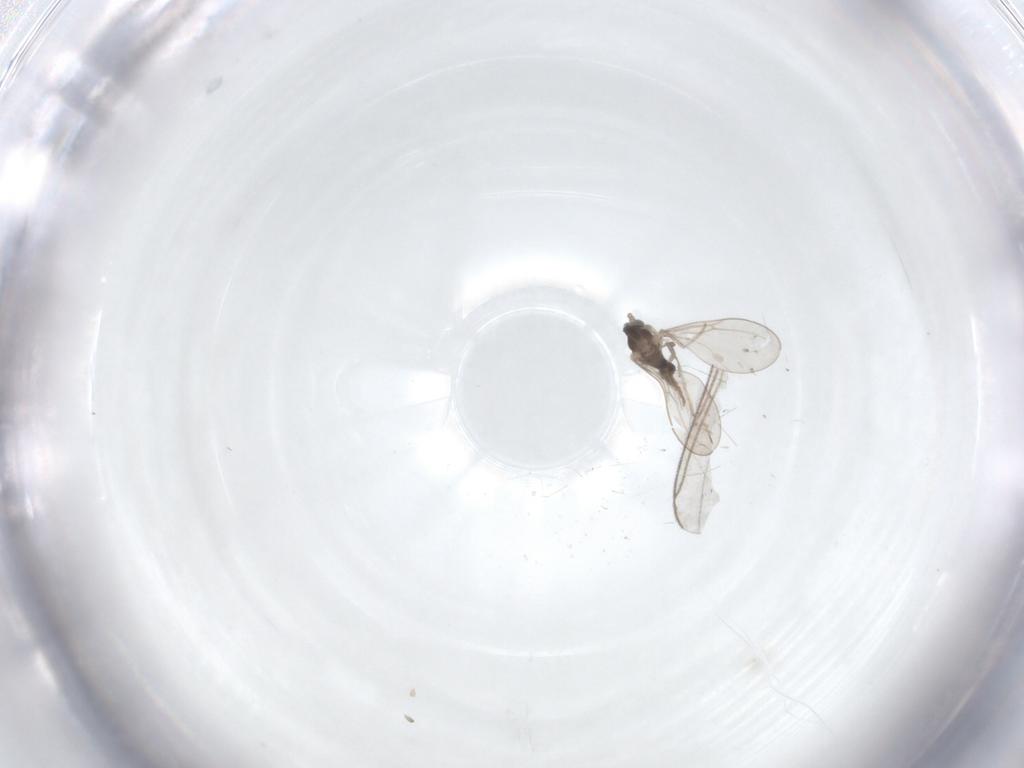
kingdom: Animalia
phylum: Arthropoda
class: Insecta
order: Diptera
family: Cecidomyiidae
